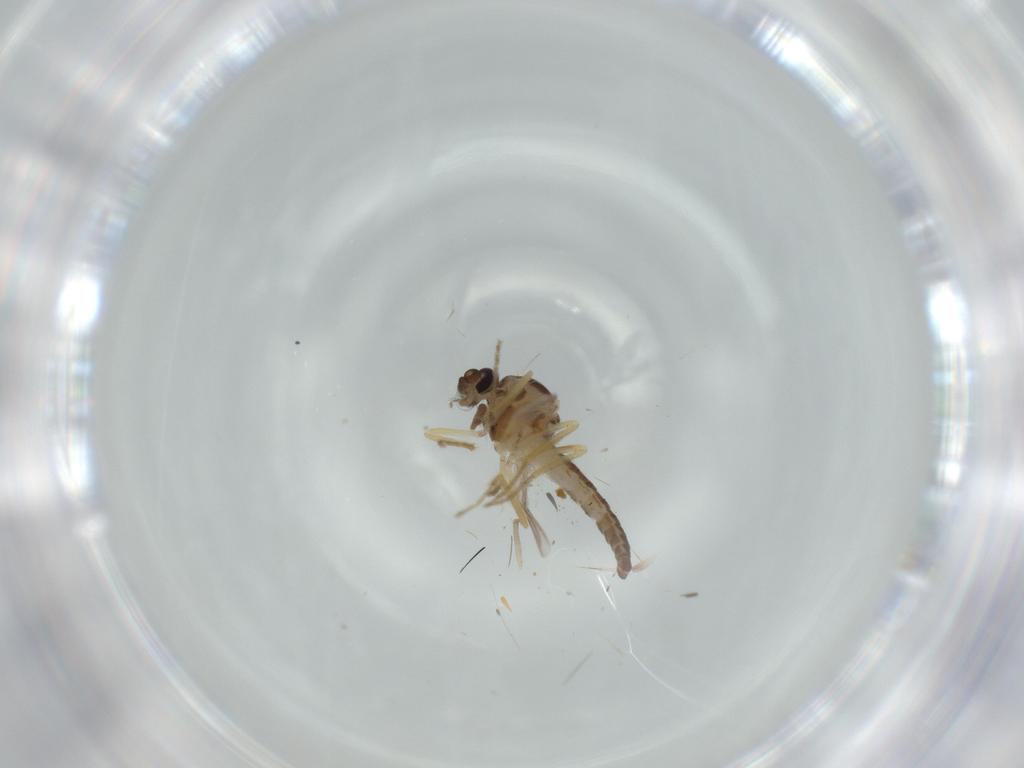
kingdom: Animalia
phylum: Arthropoda
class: Insecta
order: Diptera
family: Ceratopogonidae
